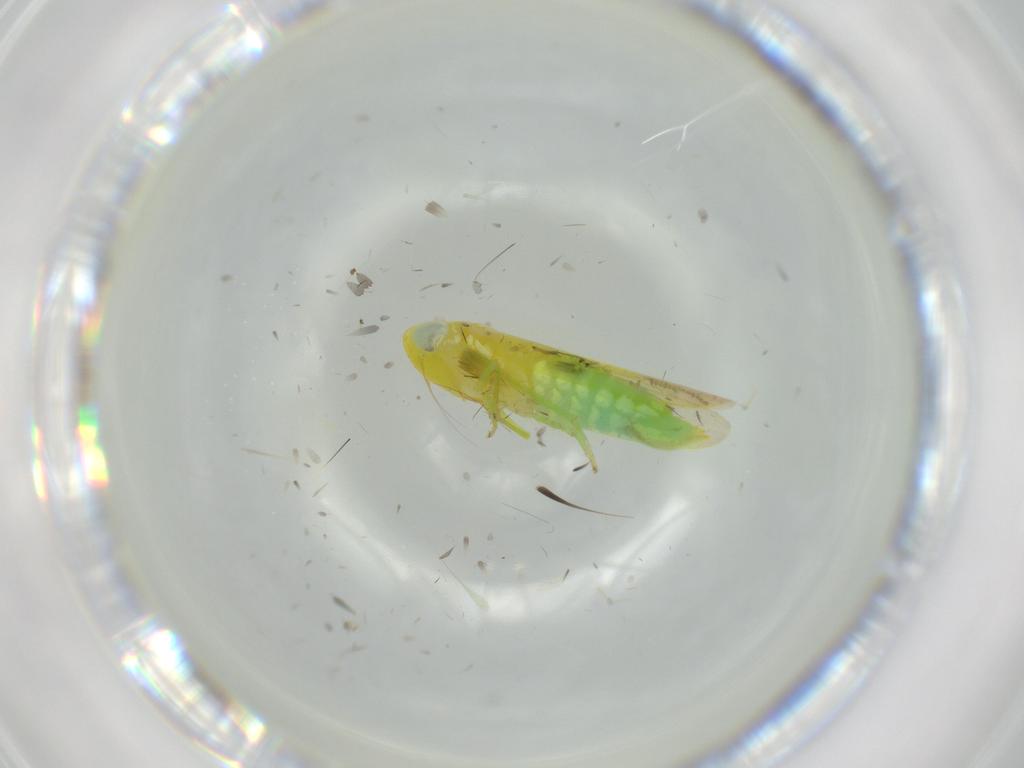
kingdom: Animalia
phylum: Arthropoda
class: Insecta
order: Hemiptera
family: Cicadellidae
